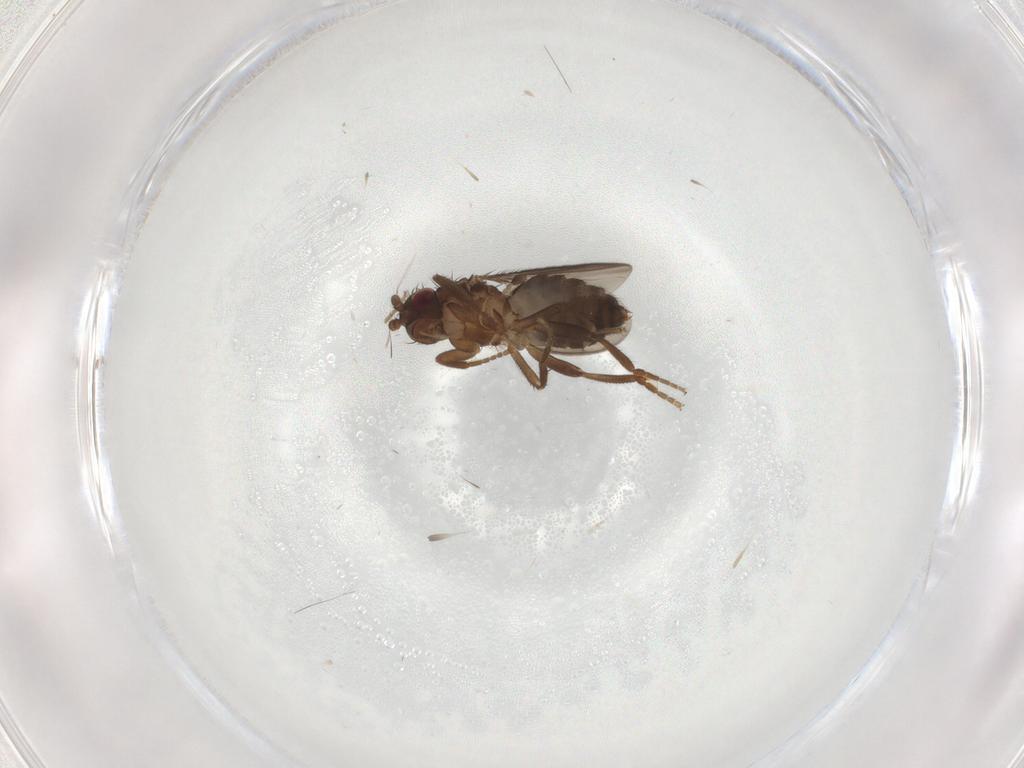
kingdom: Animalia
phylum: Arthropoda
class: Insecta
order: Diptera
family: Sphaeroceridae
